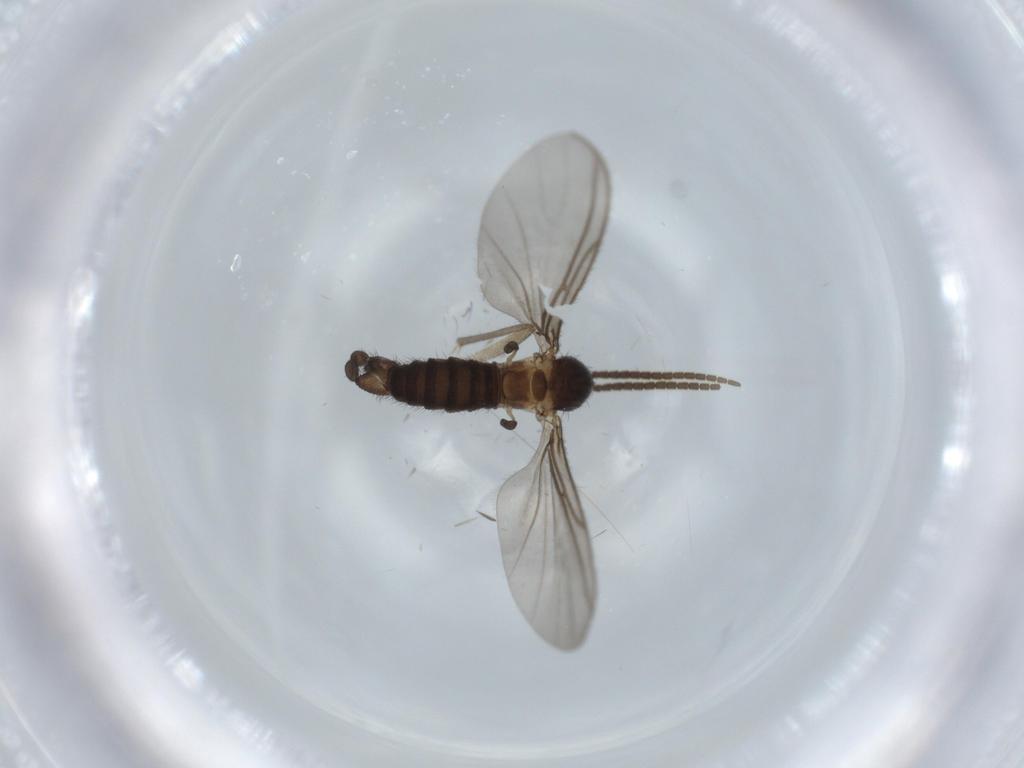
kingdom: Animalia
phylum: Arthropoda
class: Insecta
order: Diptera
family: Sciaridae
